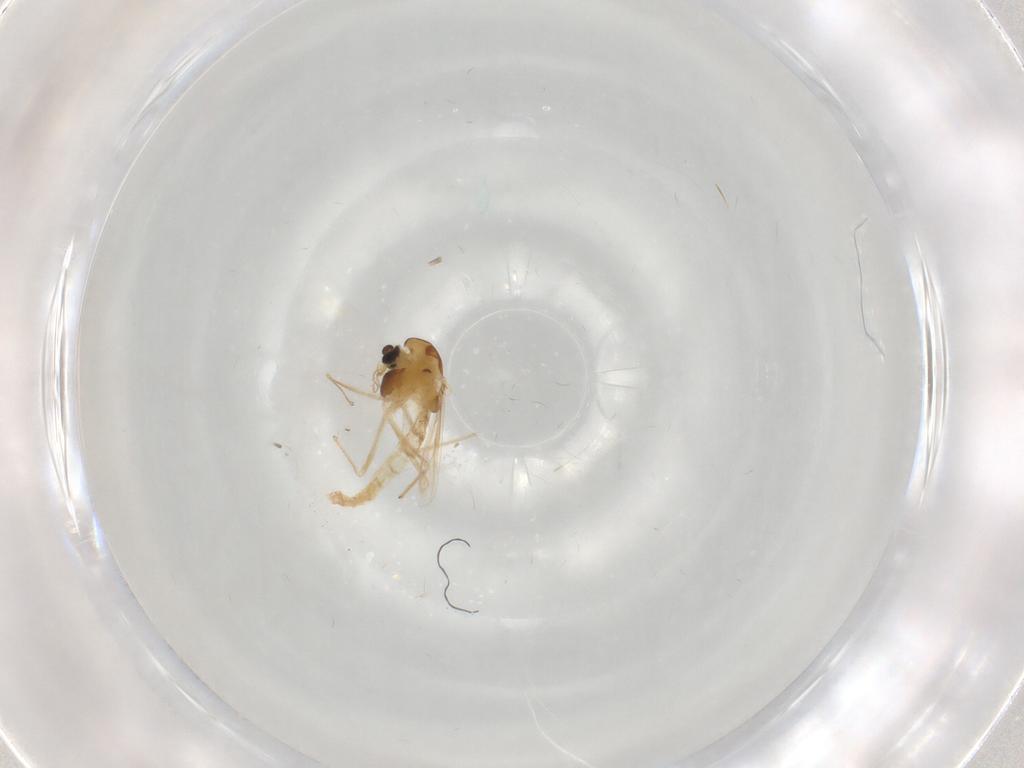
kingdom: Animalia
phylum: Arthropoda
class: Insecta
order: Diptera
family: Chironomidae
